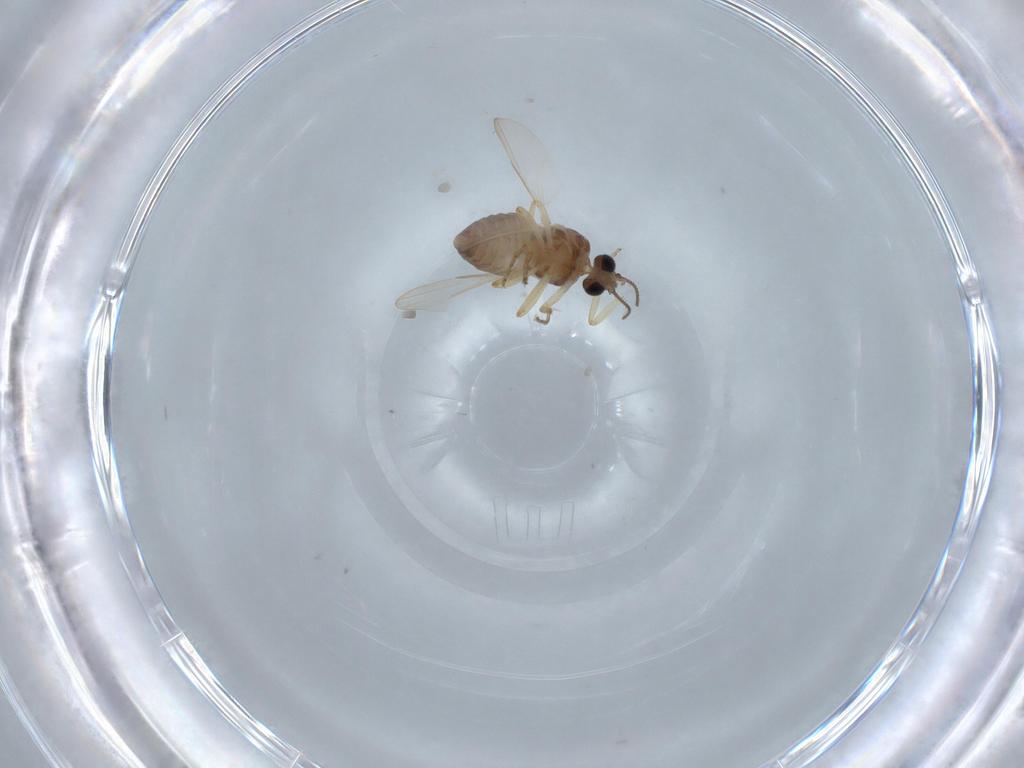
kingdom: Animalia
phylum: Arthropoda
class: Insecta
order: Diptera
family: Ceratopogonidae
